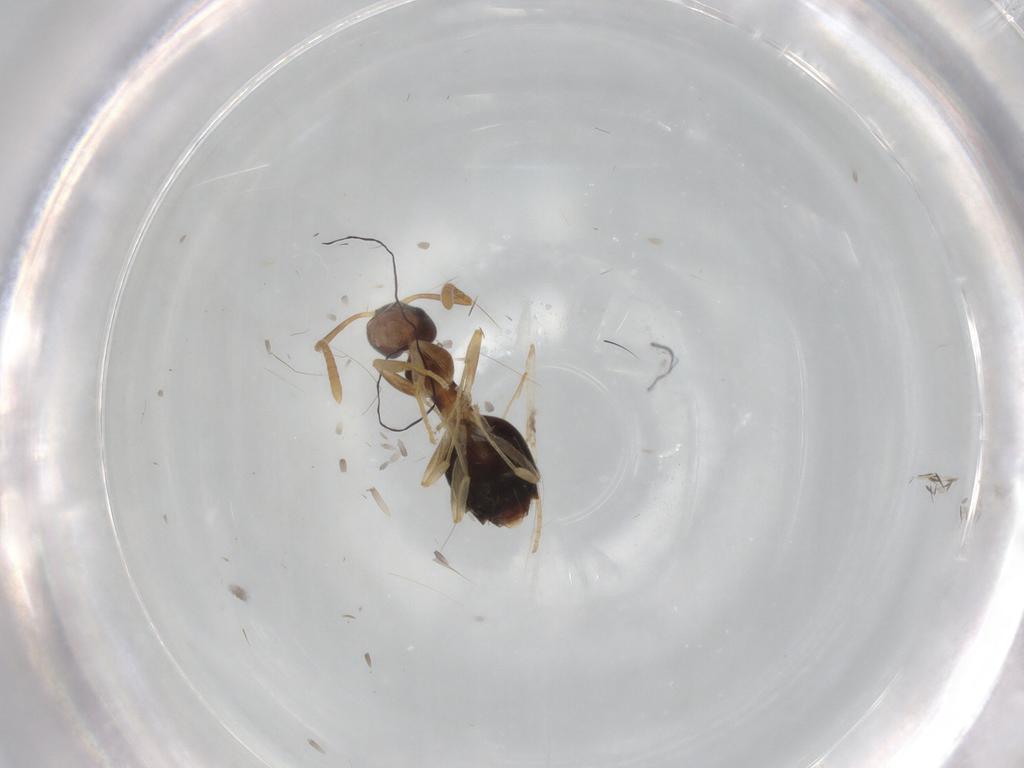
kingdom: Animalia
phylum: Arthropoda
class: Insecta
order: Hymenoptera
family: Formicidae
